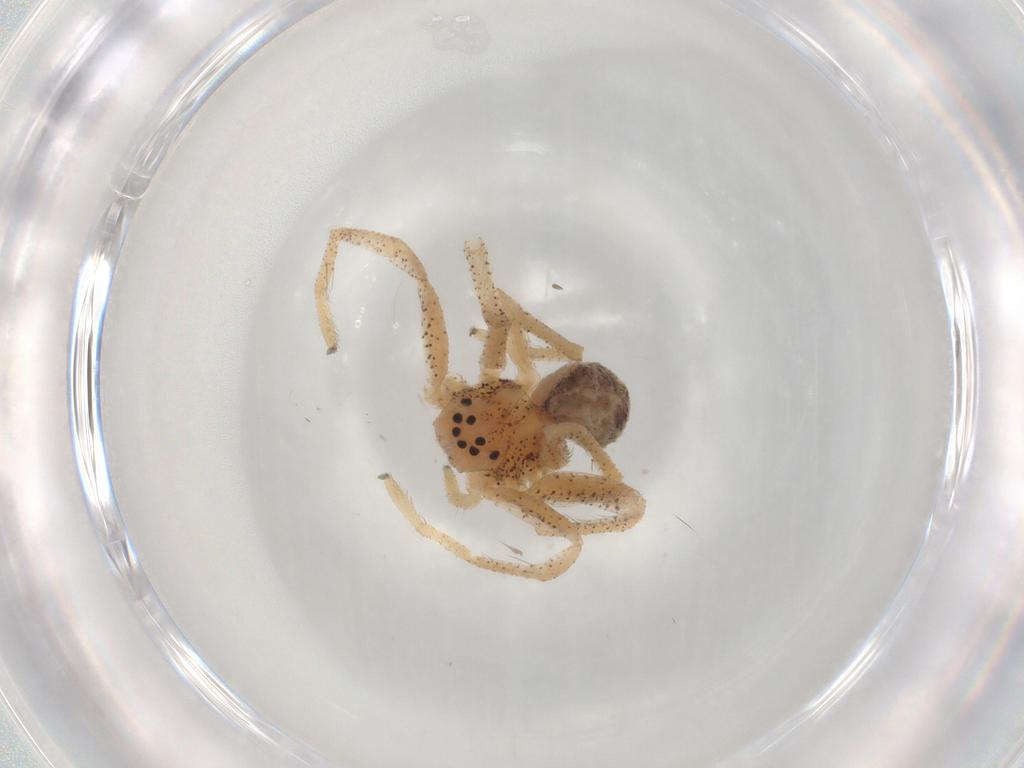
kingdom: Animalia
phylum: Arthropoda
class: Arachnida
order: Araneae
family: Philodromidae
